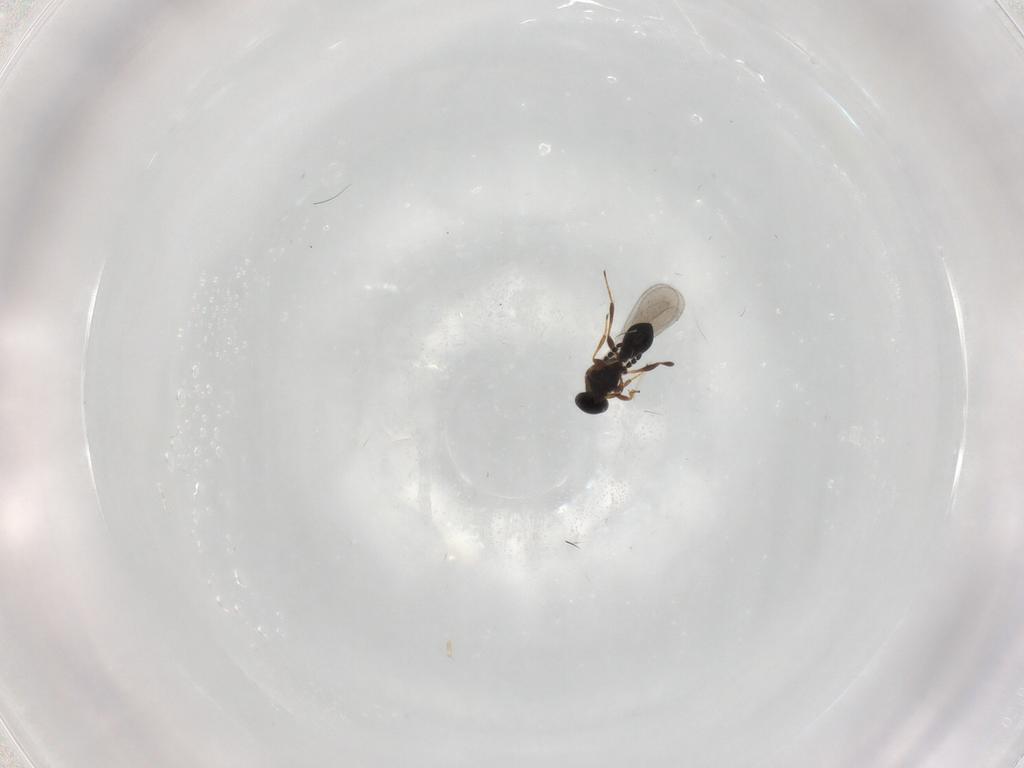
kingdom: Animalia
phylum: Arthropoda
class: Insecta
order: Hymenoptera
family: Platygastridae
